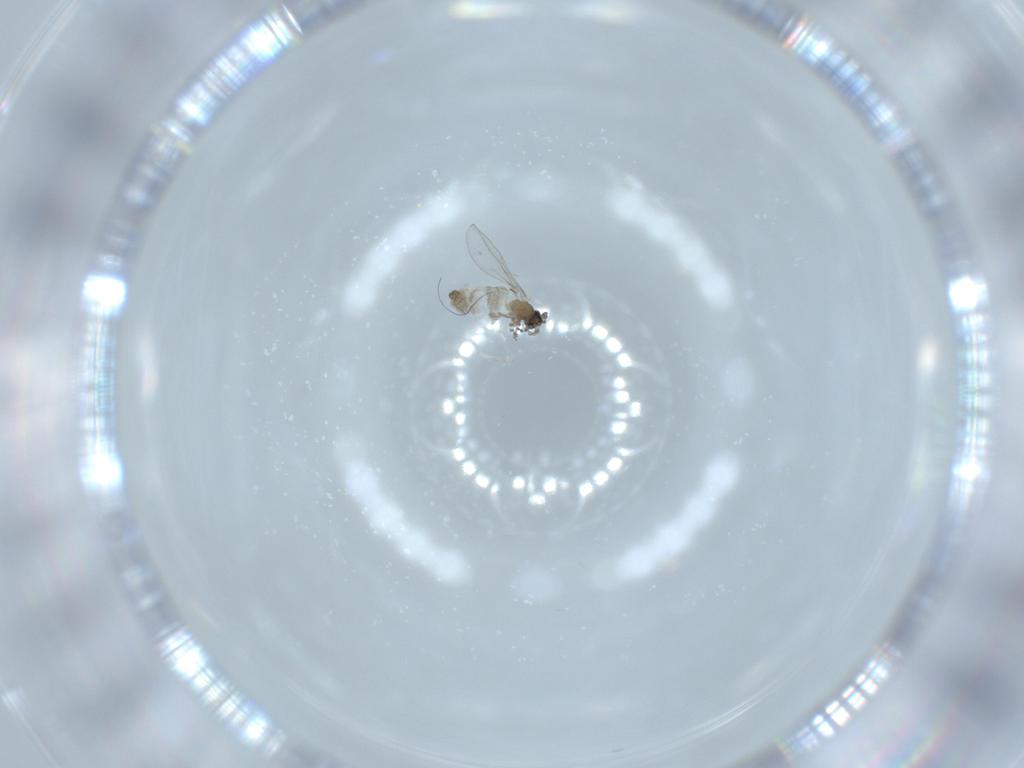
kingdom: Animalia
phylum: Arthropoda
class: Insecta
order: Diptera
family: Cecidomyiidae
